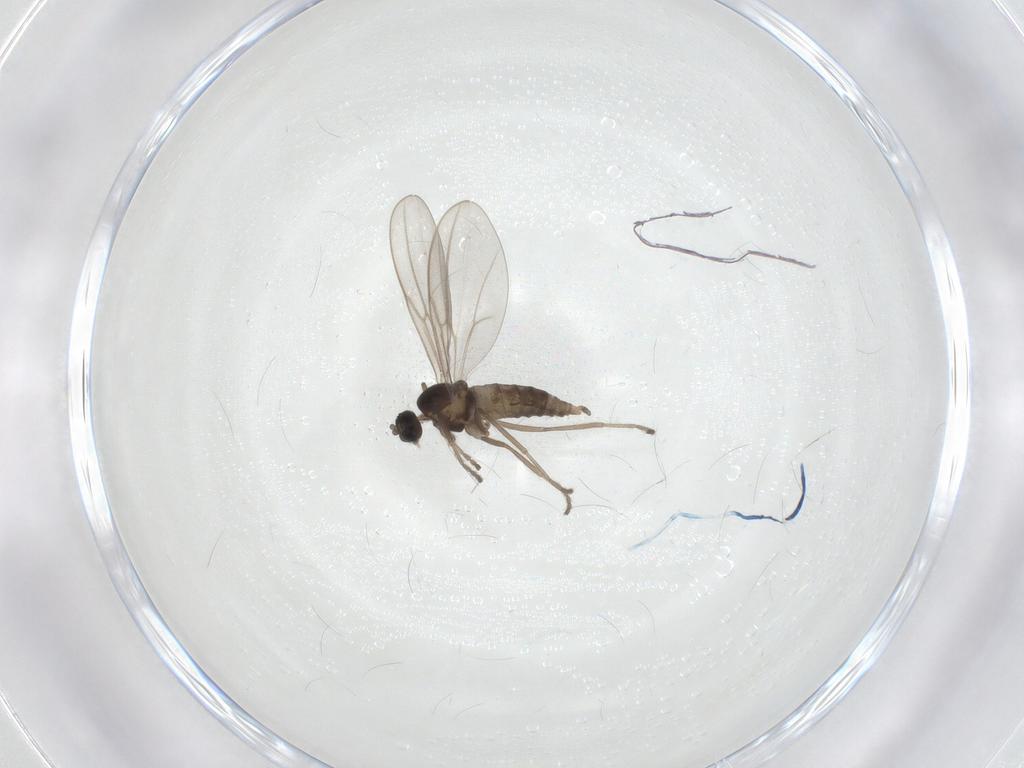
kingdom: Animalia
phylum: Arthropoda
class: Insecta
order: Diptera
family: Cecidomyiidae
